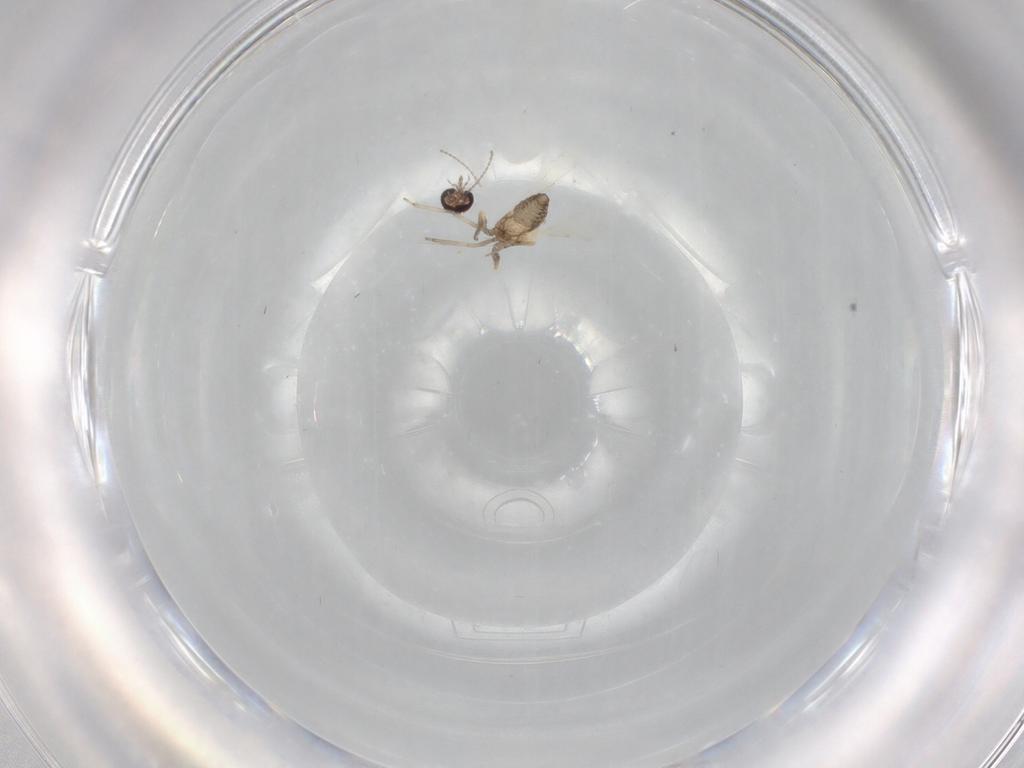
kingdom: Animalia
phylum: Arthropoda
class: Insecta
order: Diptera
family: Ceratopogonidae
